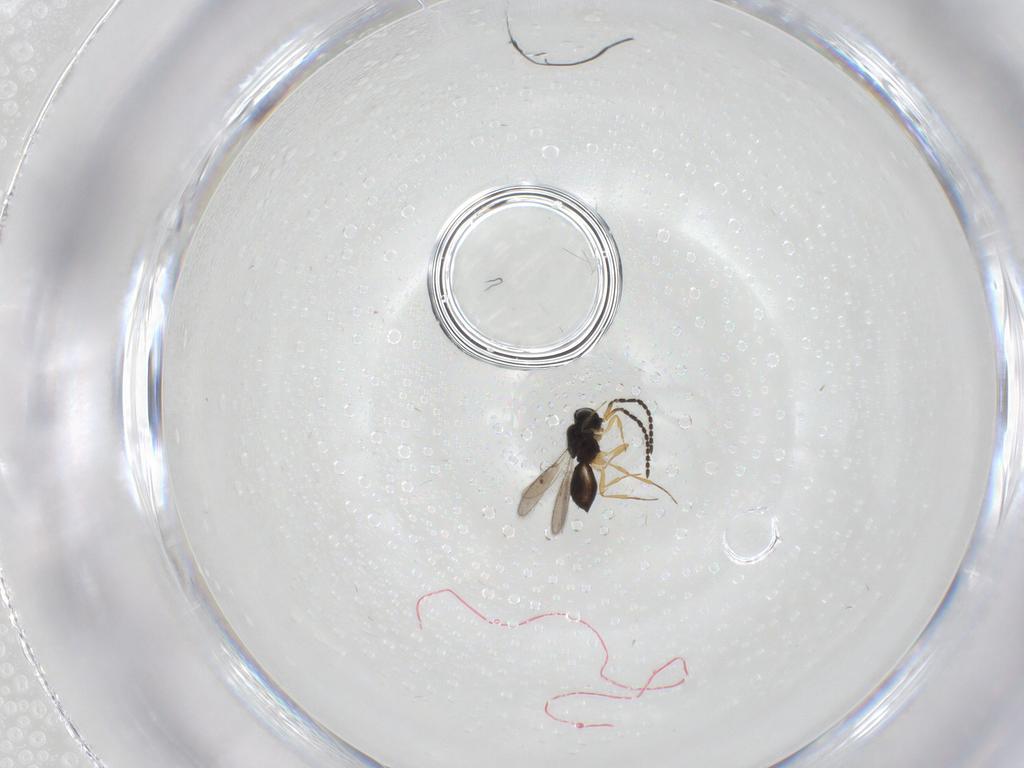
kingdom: Animalia
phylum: Arthropoda
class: Insecta
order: Hymenoptera
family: Scelionidae
